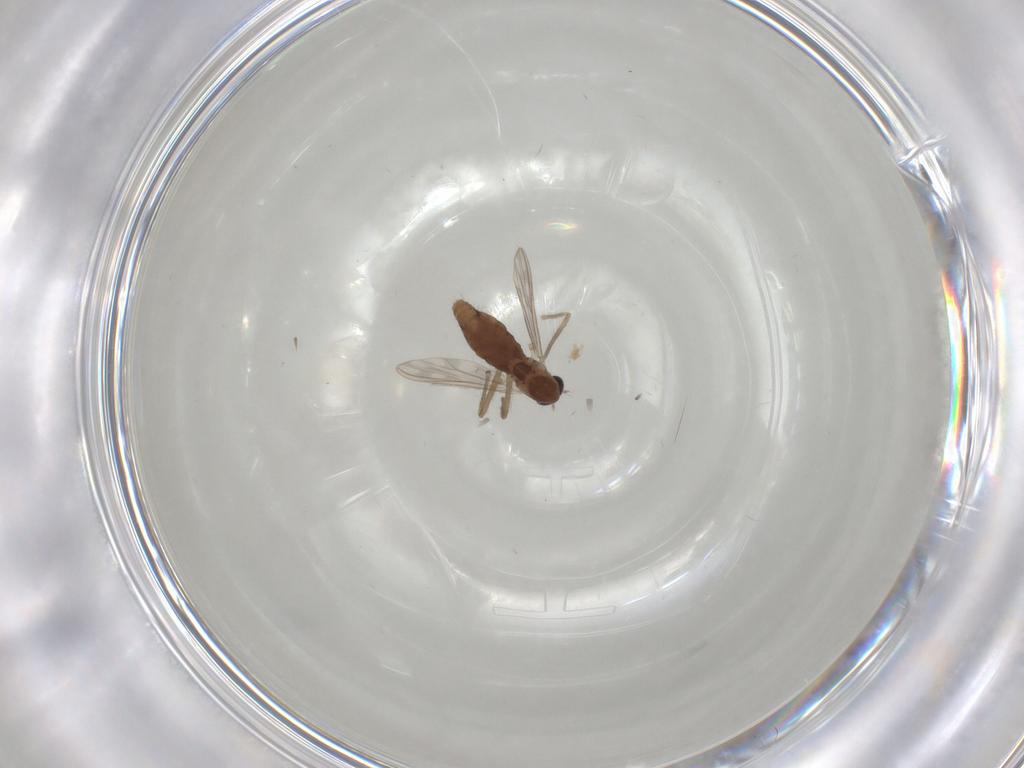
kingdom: Animalia
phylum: Arthropoda
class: Insecta
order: Diptera
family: Chironomidae
